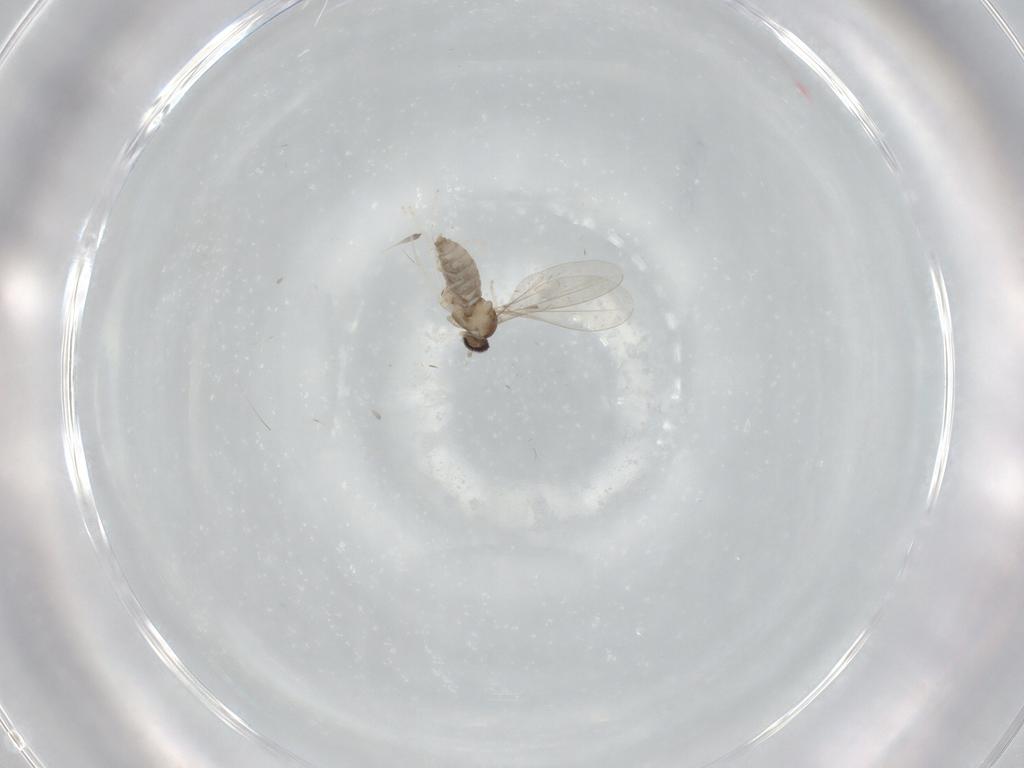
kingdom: Animalia
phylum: Arthropoda
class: Insecta
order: Diptera
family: Cecidomyiidae
